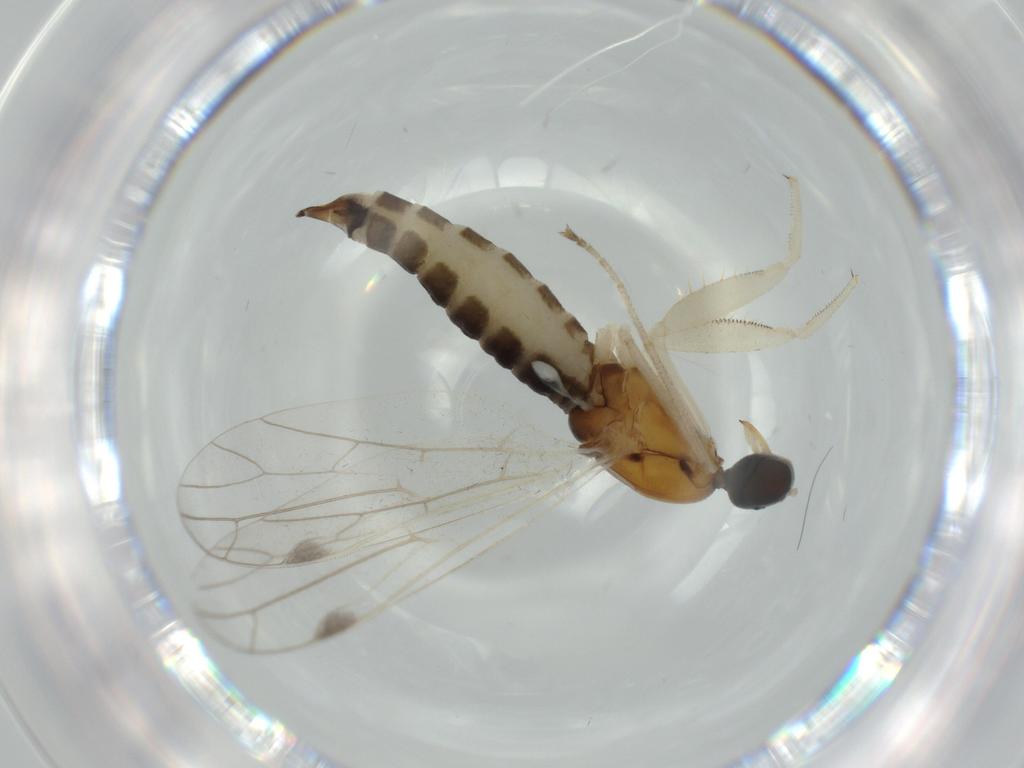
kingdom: Animalia
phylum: Arthropoda
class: Insecta
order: Diptera
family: Chironomidae
